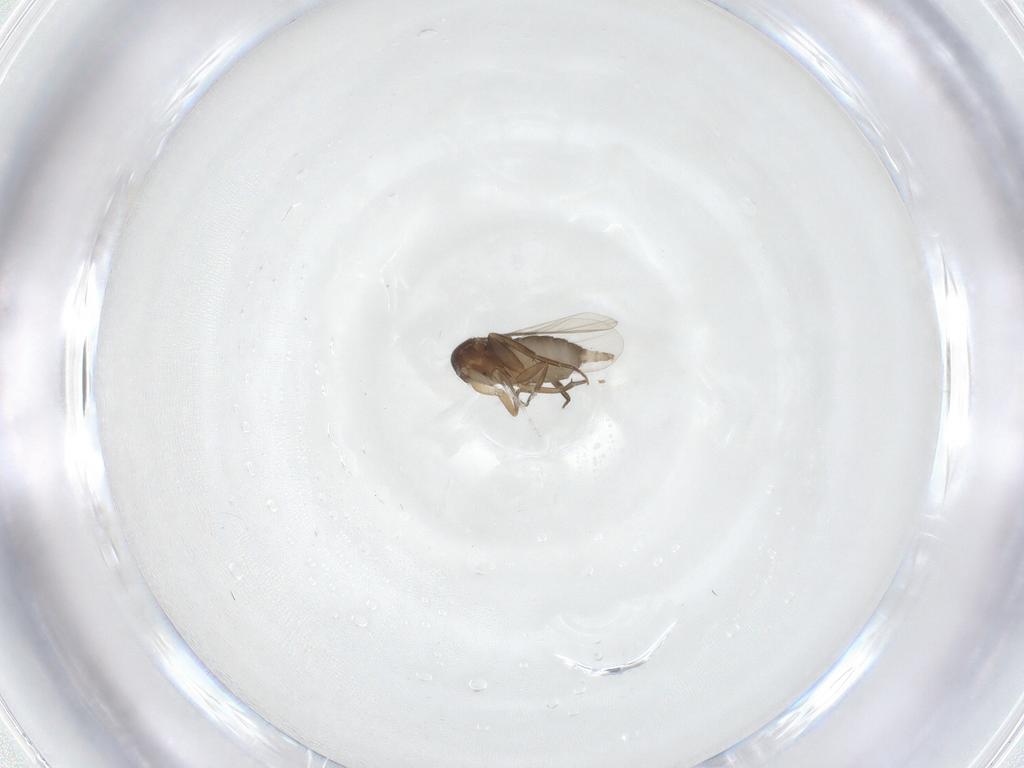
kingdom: Animalia
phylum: Arthropoda
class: Insecta
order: Diptera
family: Phoridae
